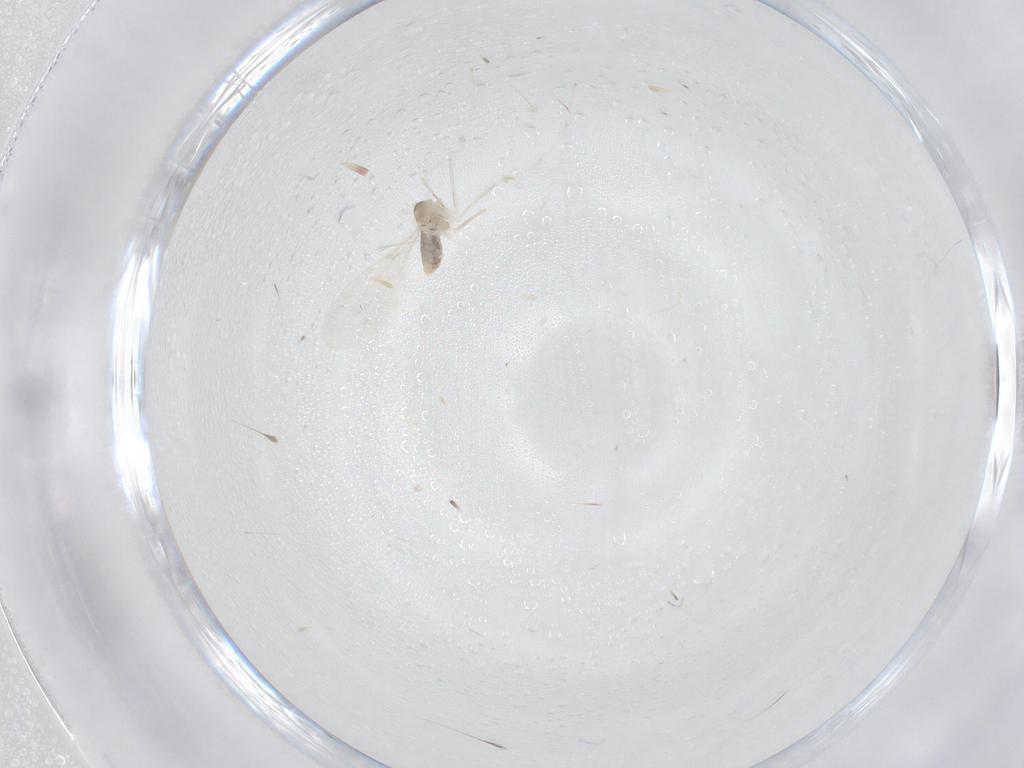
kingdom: Animalia
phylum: Arthropoda
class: Insecta
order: Diptera
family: Cecidomyiidae
